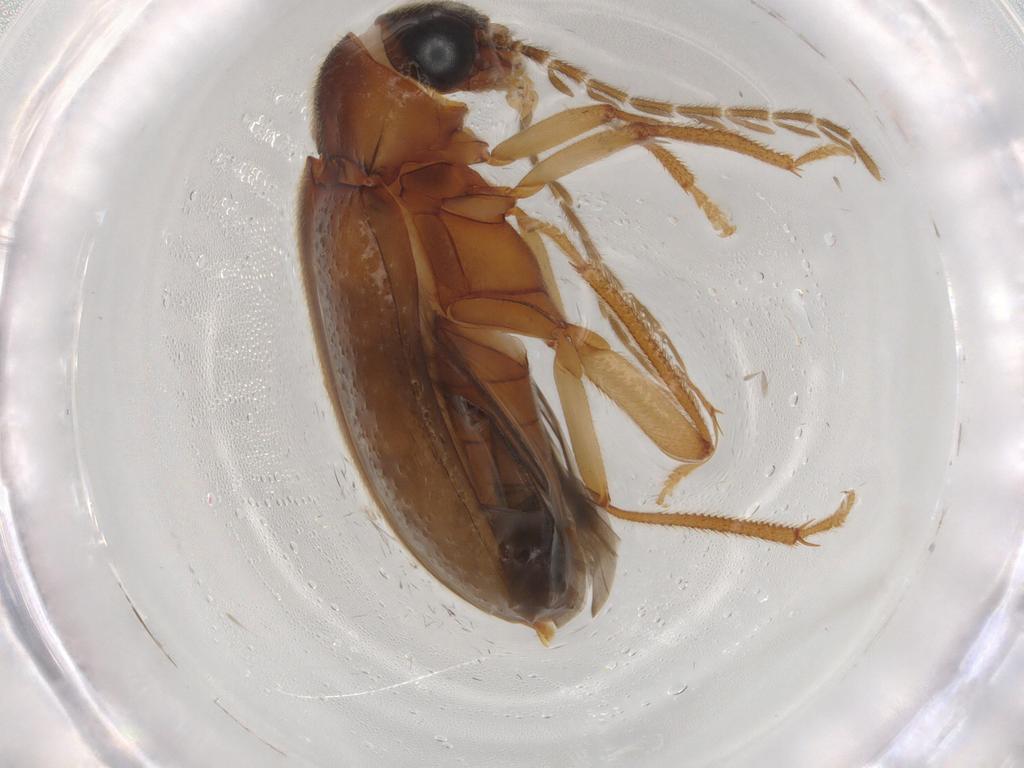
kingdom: Animalia
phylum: Arthropoda
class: Insecta
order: Coleoptera
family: Ptilodactylidae
